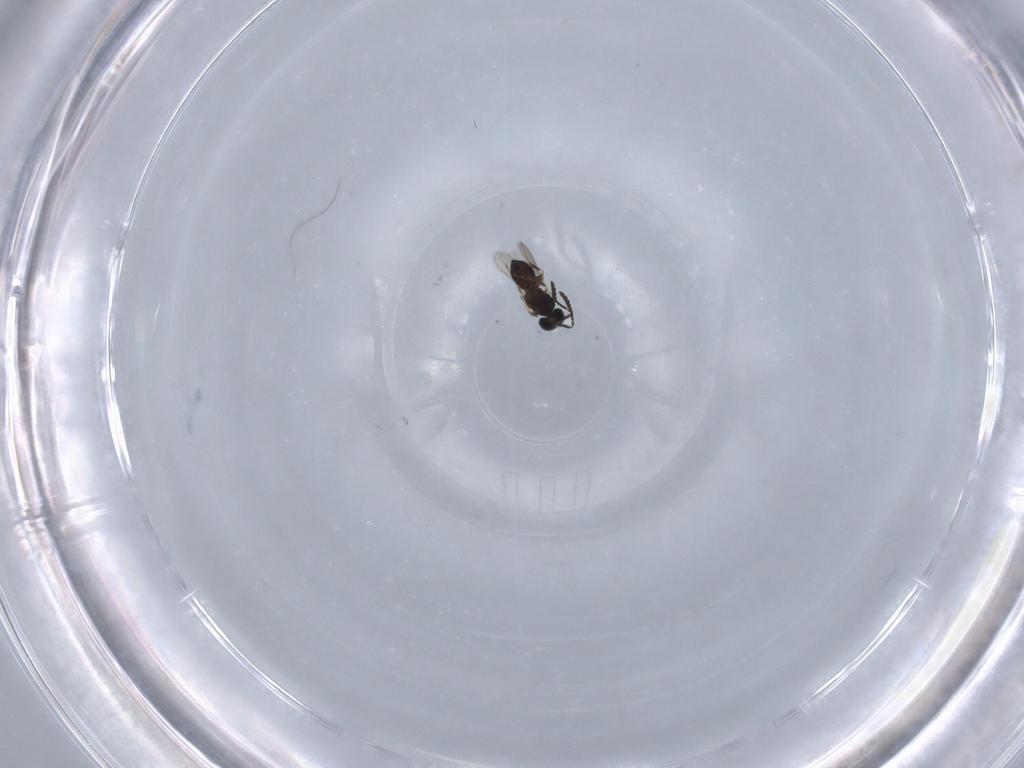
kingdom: Animalia
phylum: Arthropoda
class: Insecta
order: Hymenoptera
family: Scelionidae
